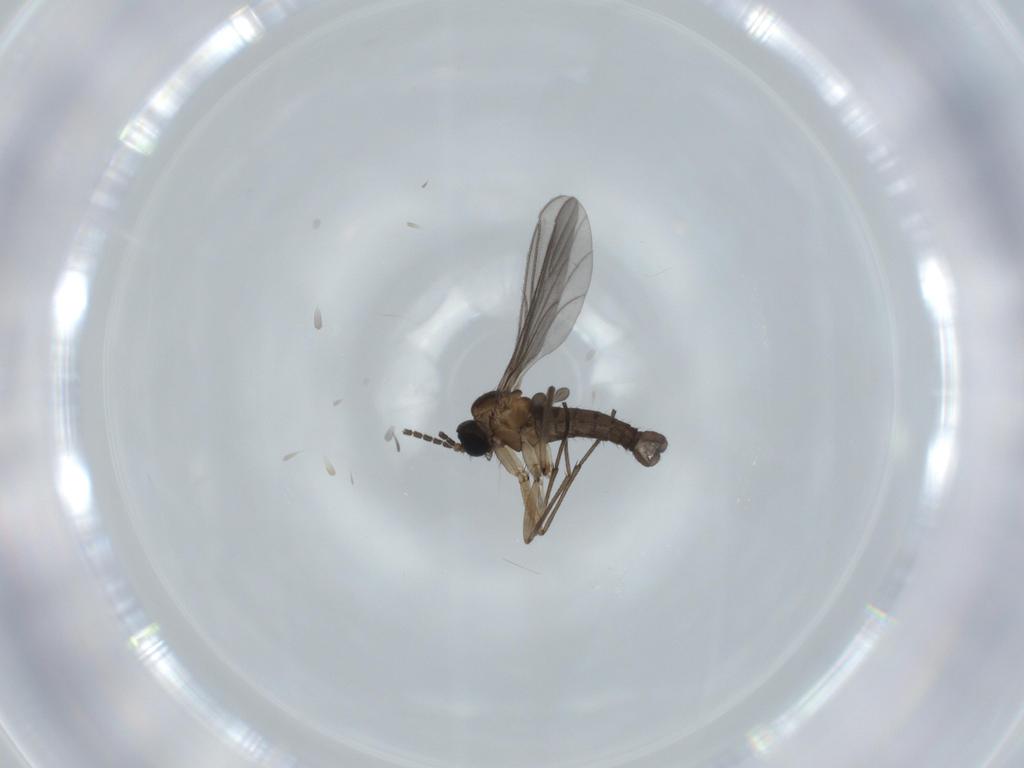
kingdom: Animalia
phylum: Arthropoda
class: Insecta
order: Diptera
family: Sciaridae
